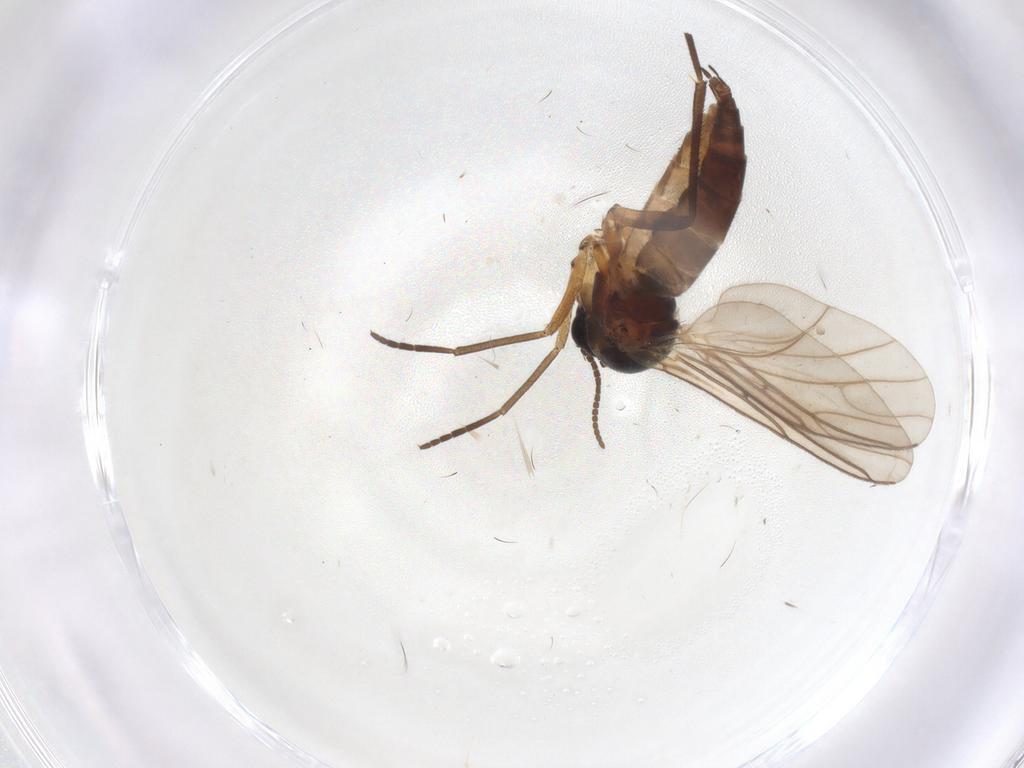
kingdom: Animalia
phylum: Arthropoda
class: Insecta
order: Diptera
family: Sciaridae
